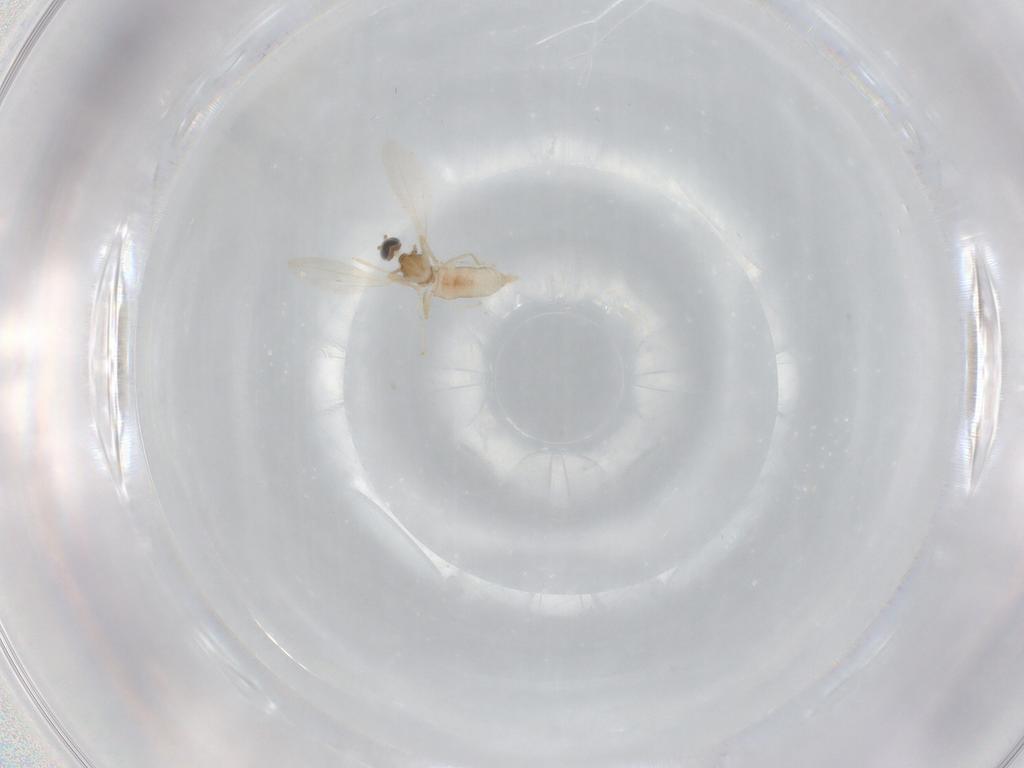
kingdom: Animalia
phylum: Arthropoda
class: Insecta
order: Diptera
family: Cecidomyiidae
